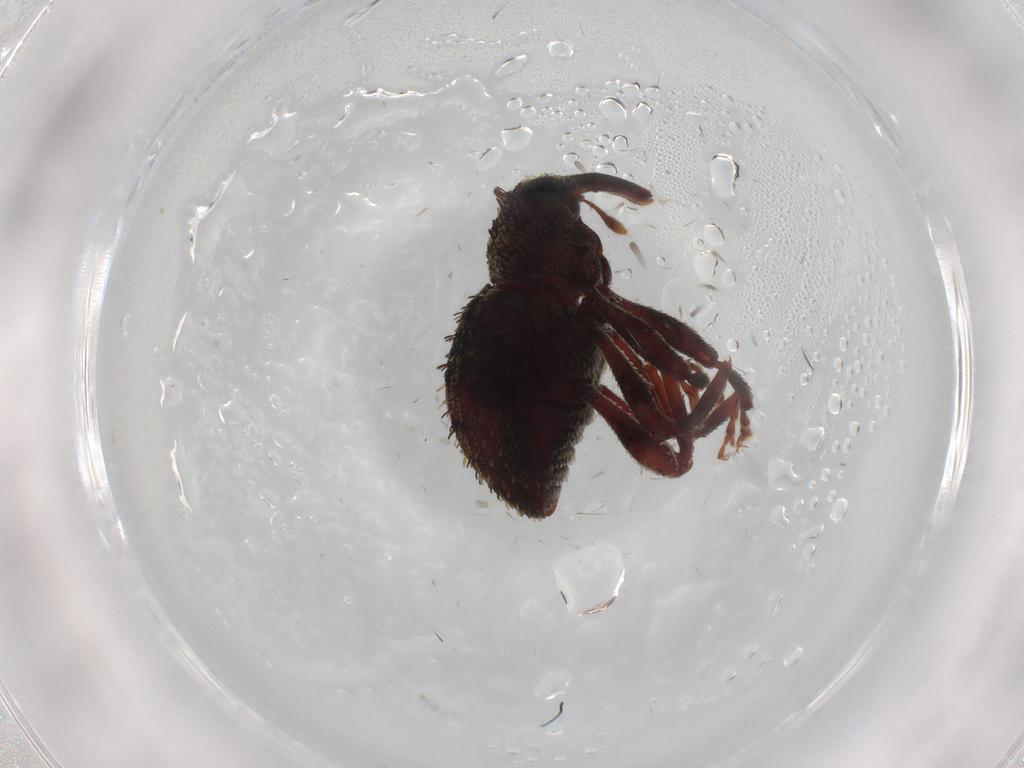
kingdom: Animalia
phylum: Arthropoda
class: Insecta
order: Coleoptera
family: Curculionidae
